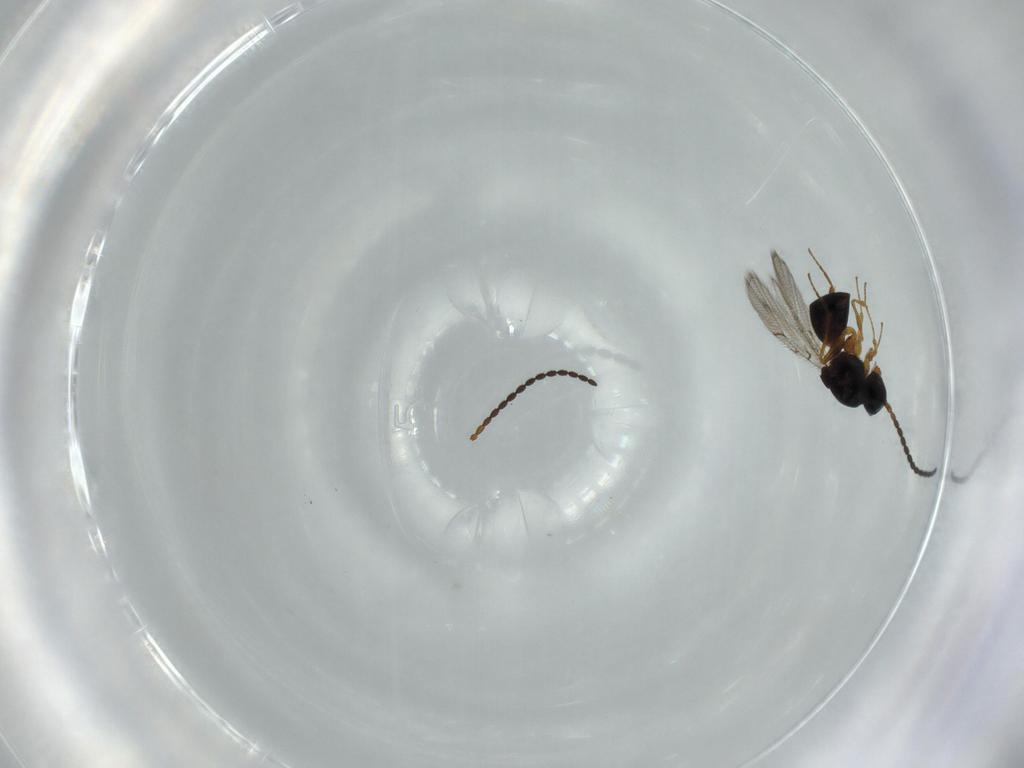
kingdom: Animalia
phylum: Arthropoda
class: Insecta
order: Hymenoptera
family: Figitidae
